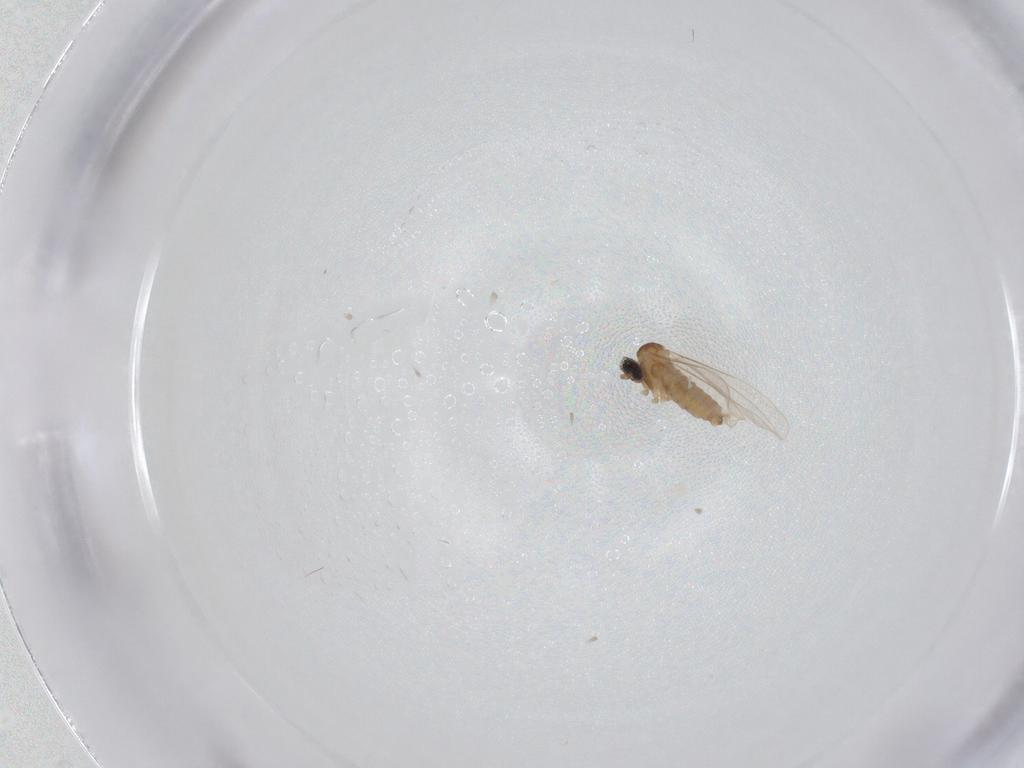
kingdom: Animalia
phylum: Arthropoda
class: Insecta
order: Diptera
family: Cecidomyiidae
